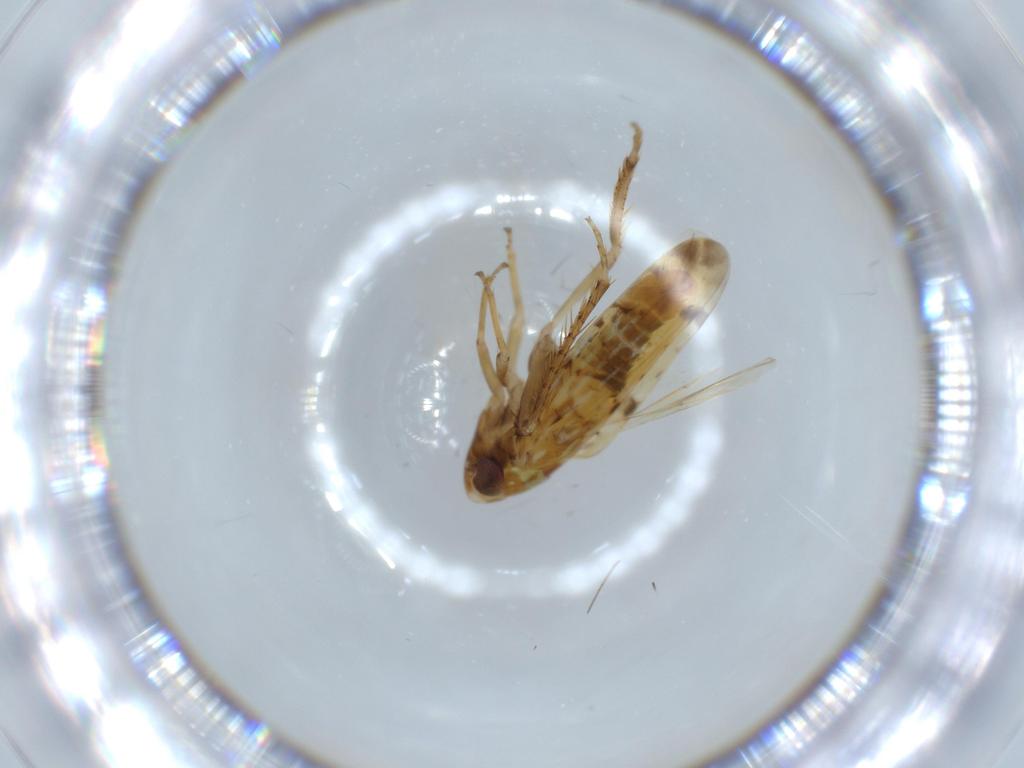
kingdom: Animalia
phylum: Arthropoda
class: Insecta
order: Hemiptera
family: Cicadellidae
